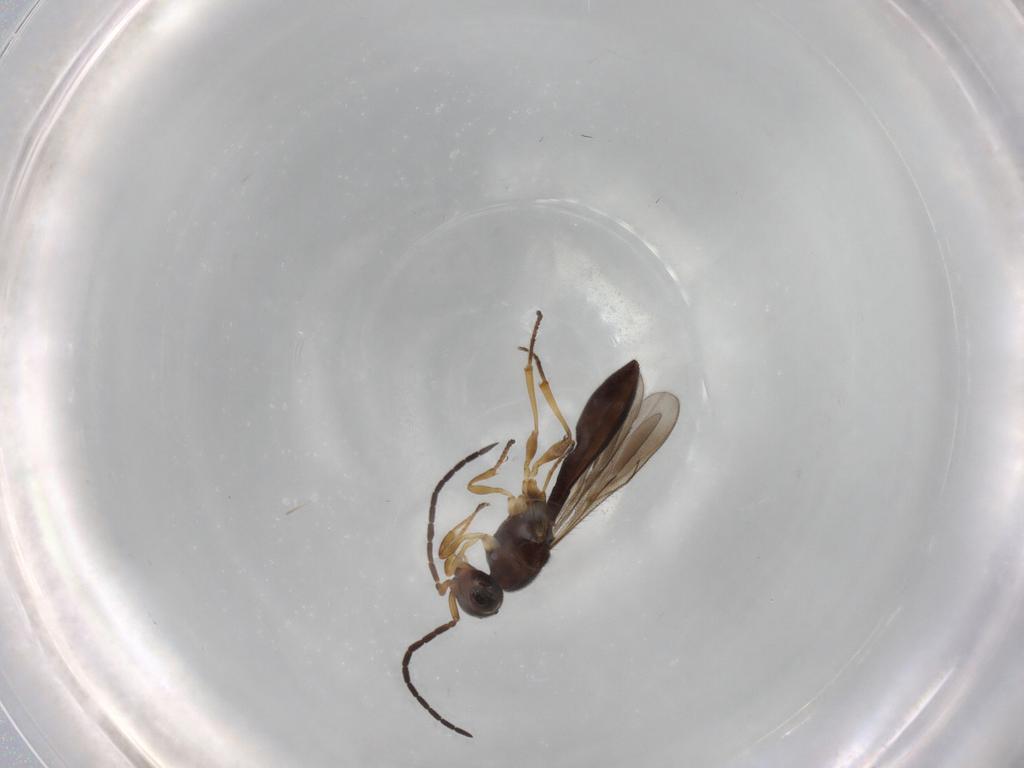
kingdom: Animalia
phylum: Arthropoda
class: Insecta
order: Hymenoptera
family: Scelionidae
